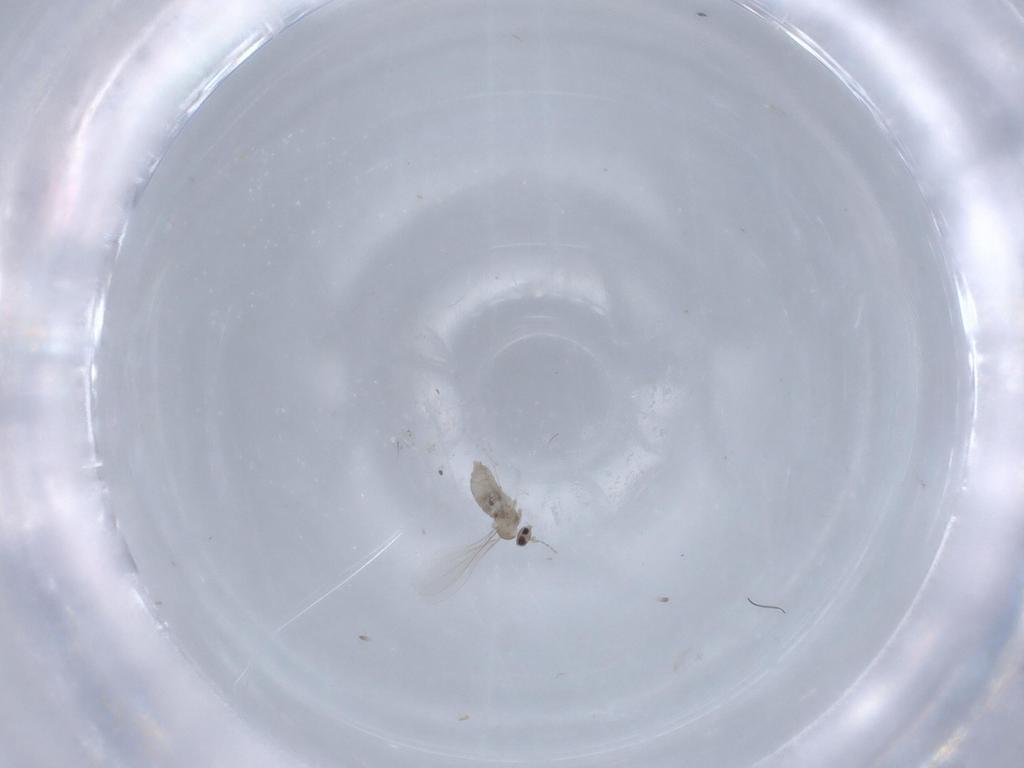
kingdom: Animalia
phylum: Arthropoda
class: Insecta
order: Diptera
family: Cecidomyiidae
